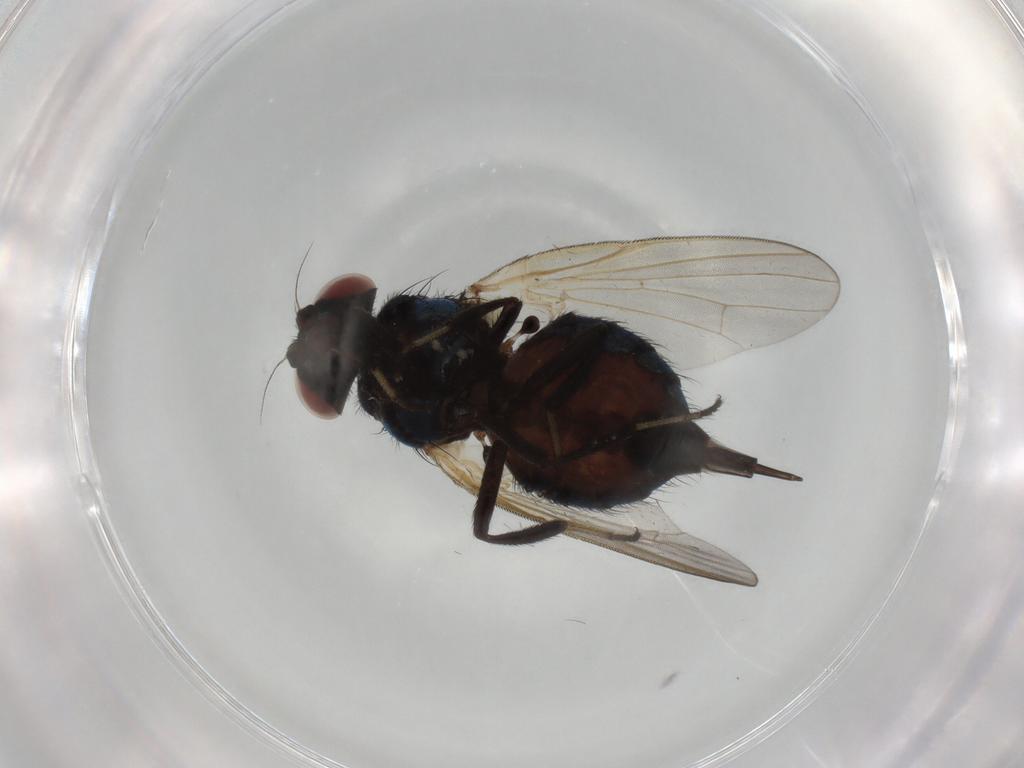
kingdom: Animalia
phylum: Arthropoda
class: Insecta
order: Diptera
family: Lonchaeidae
